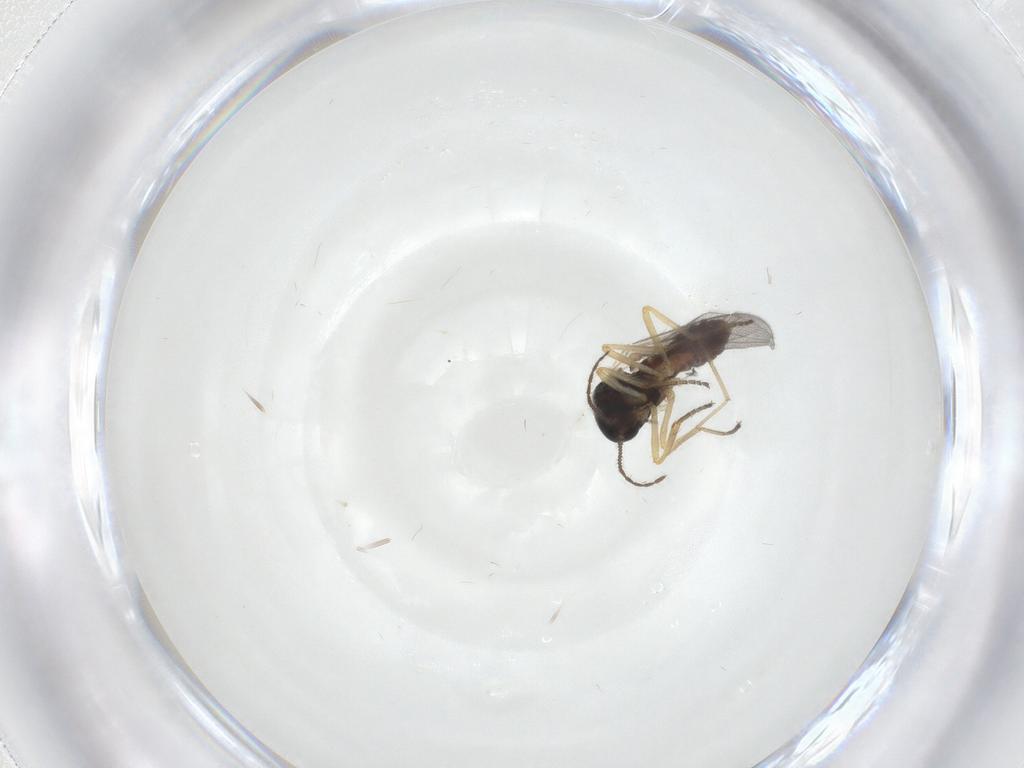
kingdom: Animalia
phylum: Arthropoda
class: Insecta
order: Diptera
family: Ceratopogonidae
